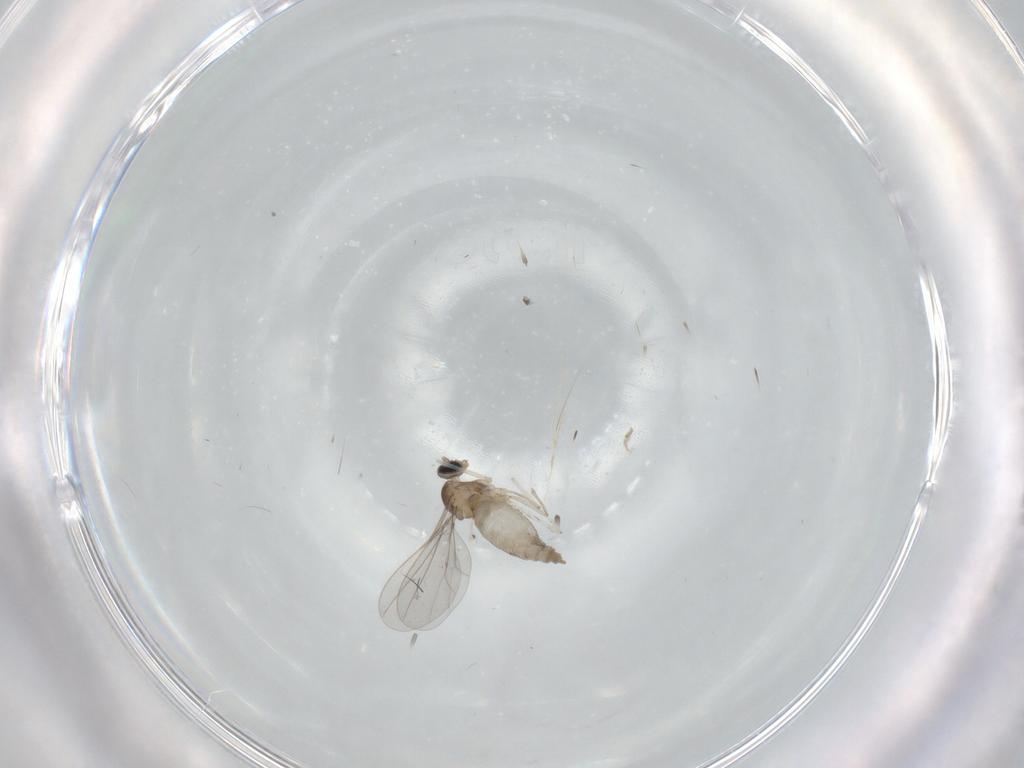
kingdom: Animalia
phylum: Arthropoda
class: Insecta
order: Diptera
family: Cecidomyiidae
